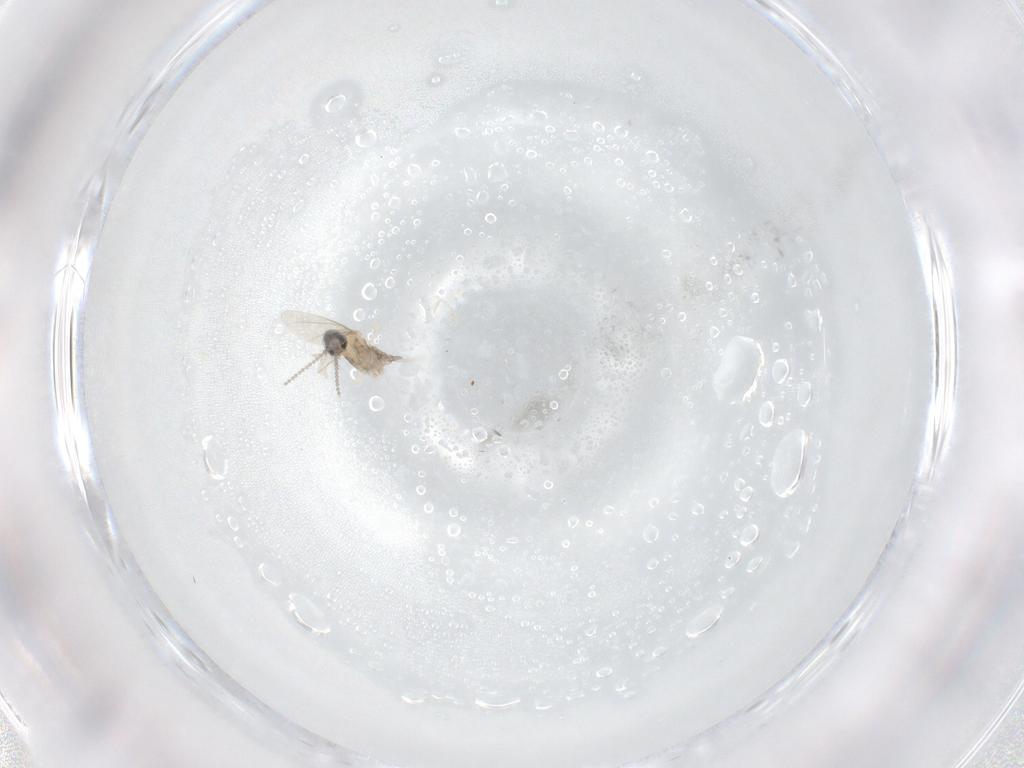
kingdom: Animalia
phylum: Arthropoda
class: Insecta
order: Diptera
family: Cecidomyiidae
